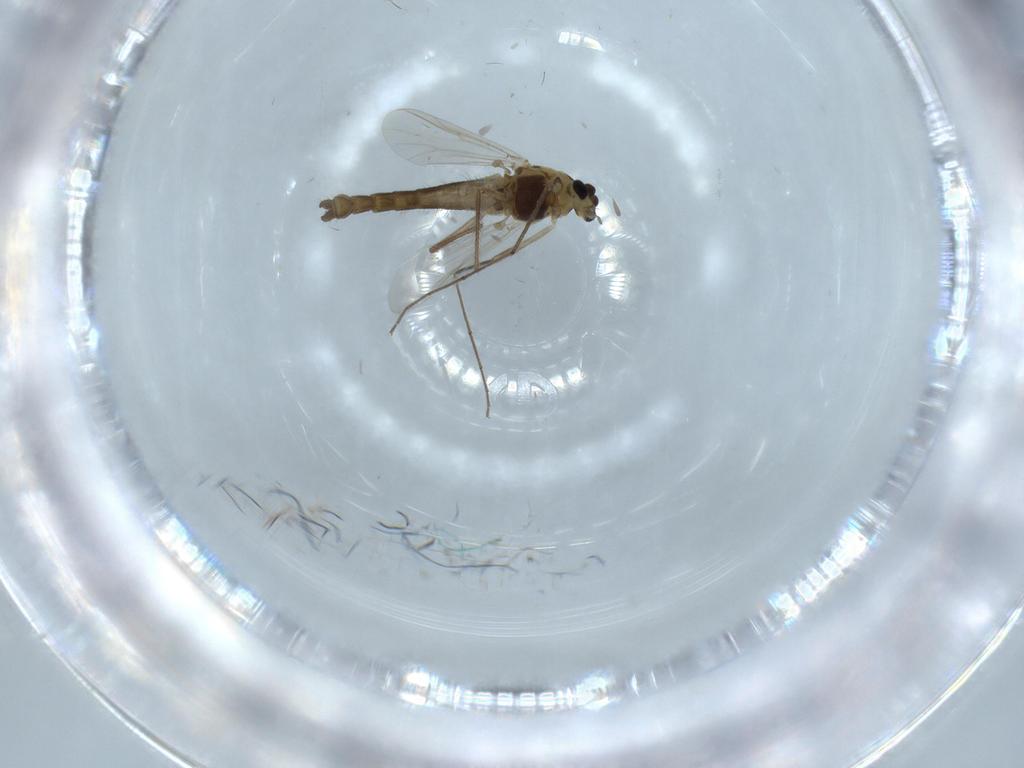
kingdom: Animalia
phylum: Arthropoda
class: Insecta
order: Diptera
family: Chironomidae
